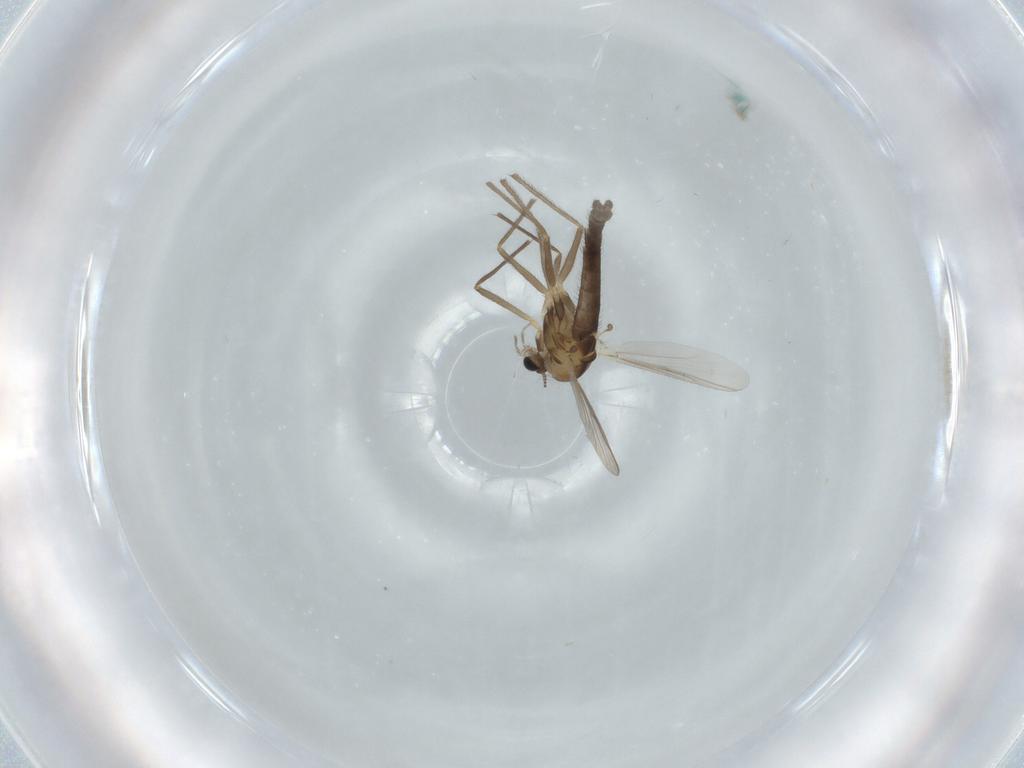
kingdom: Animalia
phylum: Arthropoda
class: Insecta
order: Diptera
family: Chironomidae
